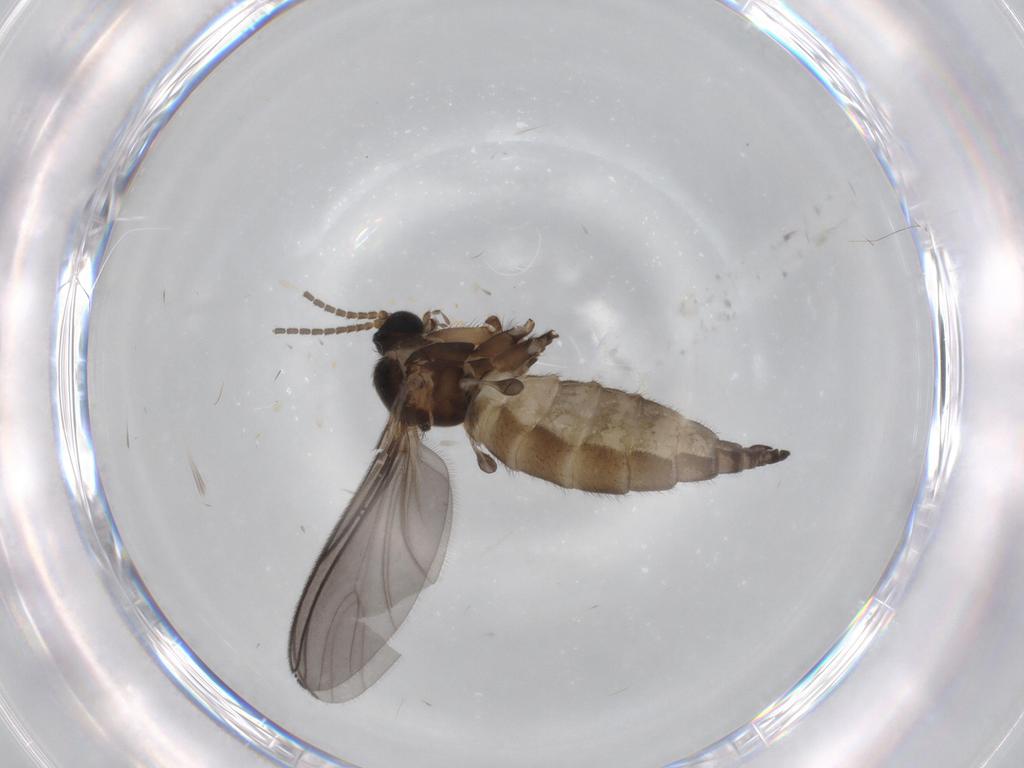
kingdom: Animalia
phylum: Arthropoda
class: Insecta
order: Diptera
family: Sciaridae
